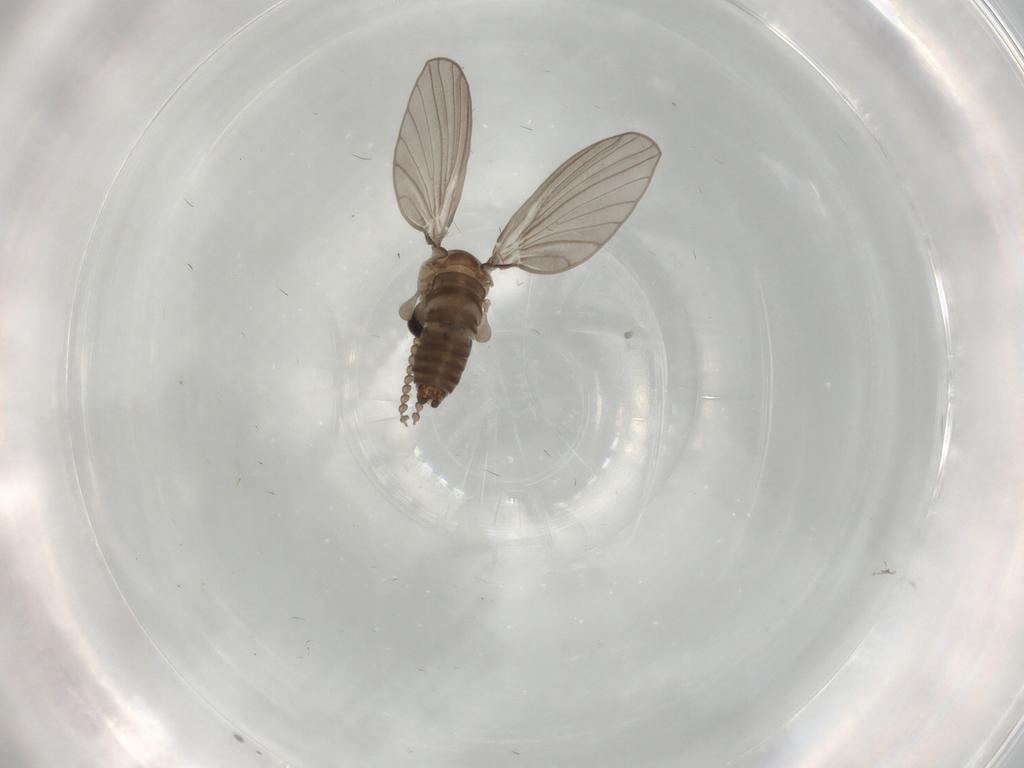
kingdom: Animalia
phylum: Arthropoda
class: Insecta
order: Diptera
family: Psychodidae
